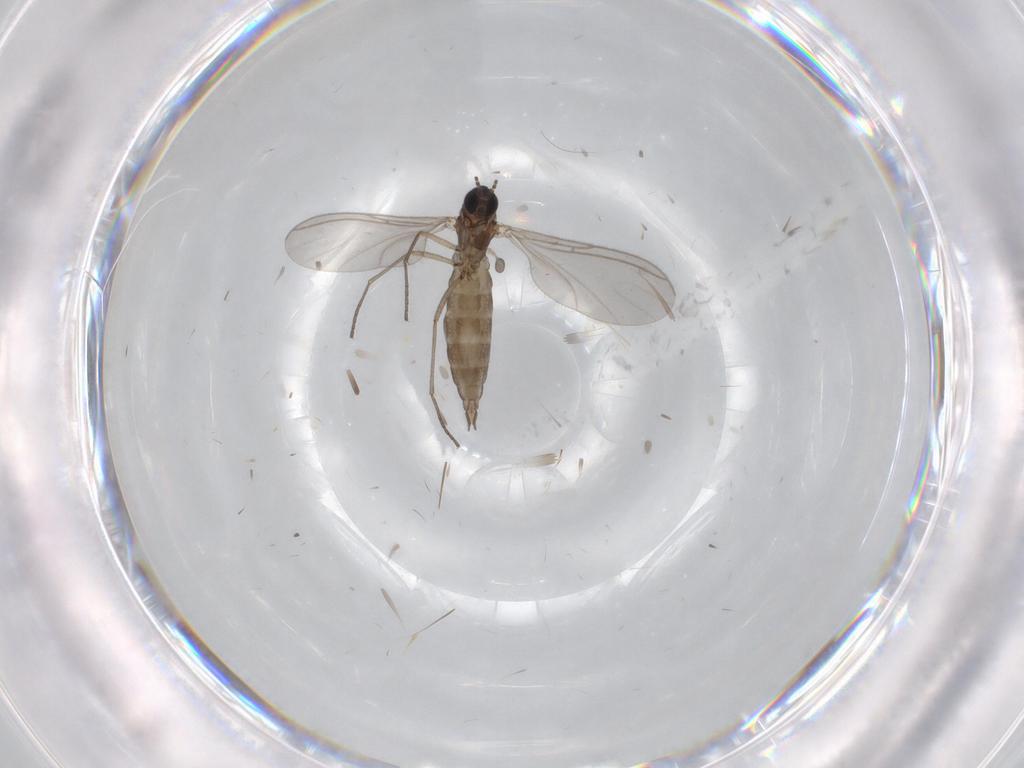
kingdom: Animalia
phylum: Arthropoda
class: Insecta
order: Diptera
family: Sciaridae
